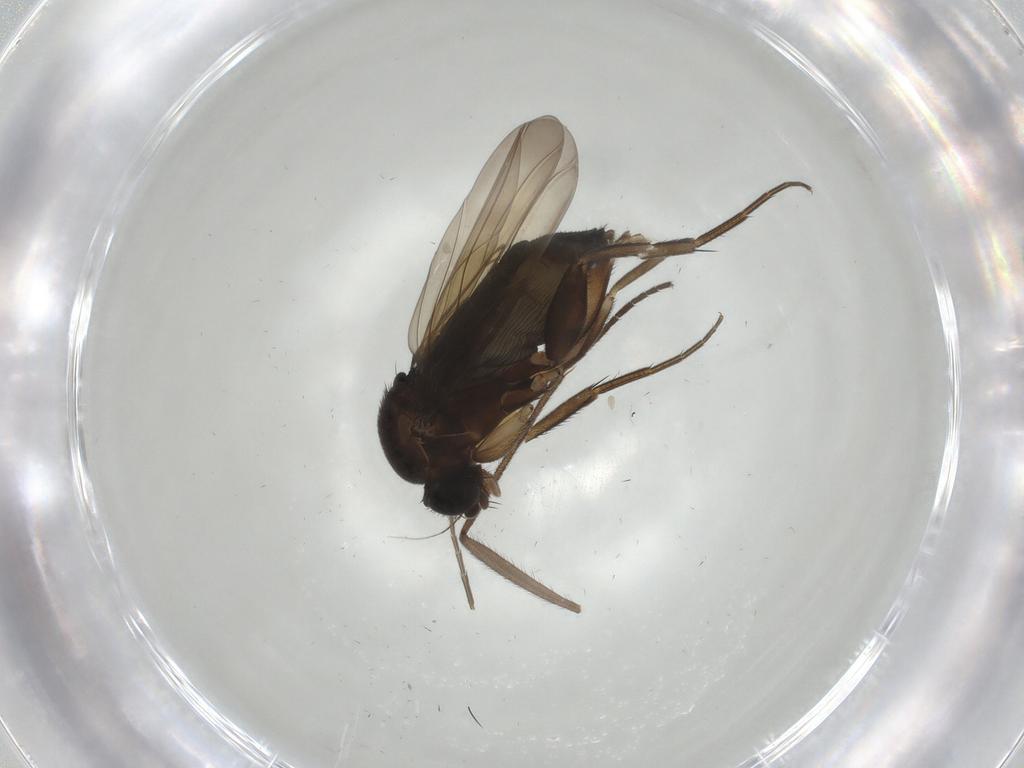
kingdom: Animalia
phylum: Arthropoda
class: Insecta
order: Diptera
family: Phoridae
